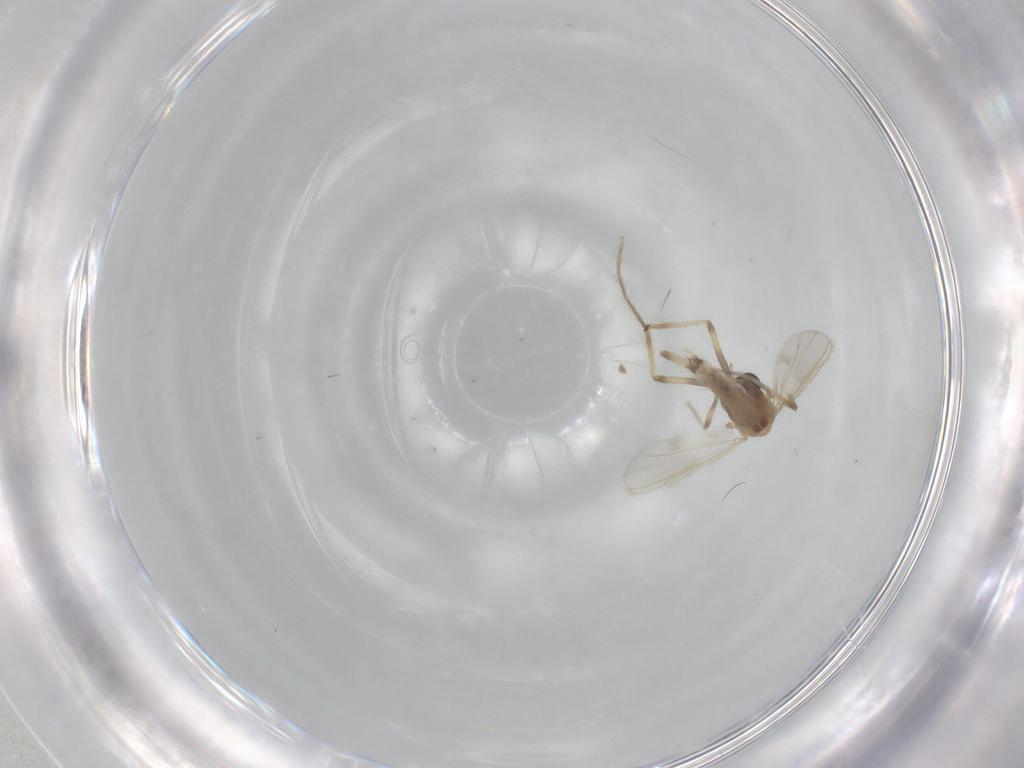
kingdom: Animalia
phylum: Arthropoda
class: Insecta
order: Diptera
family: Chironomidae
